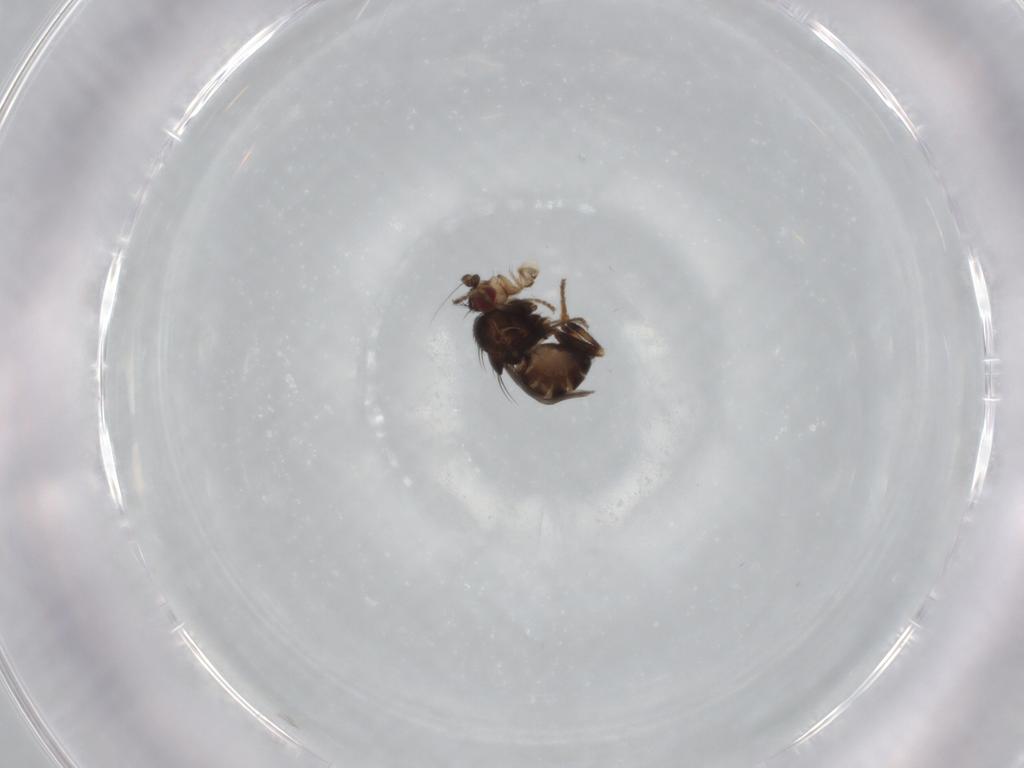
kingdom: Animalia
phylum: Arthropoda
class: Insecta
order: Diptera
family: Sphaeroceridae
